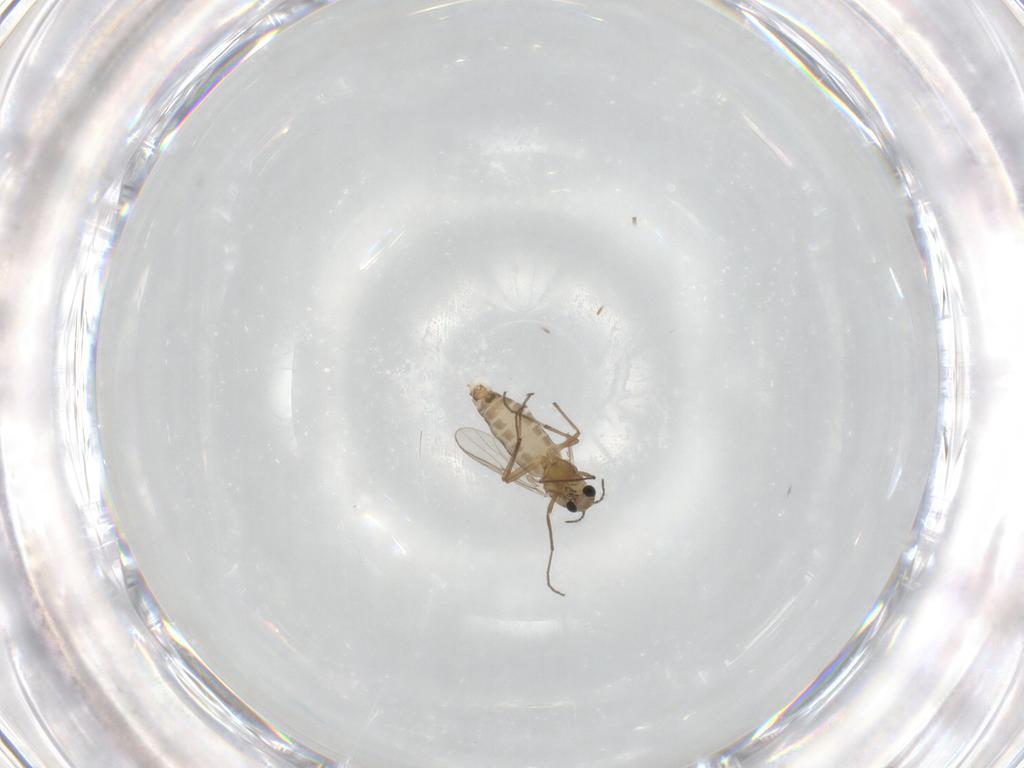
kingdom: Animalia
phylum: Arthropoda
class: Insecta
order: Diptera
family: Chironomidae
